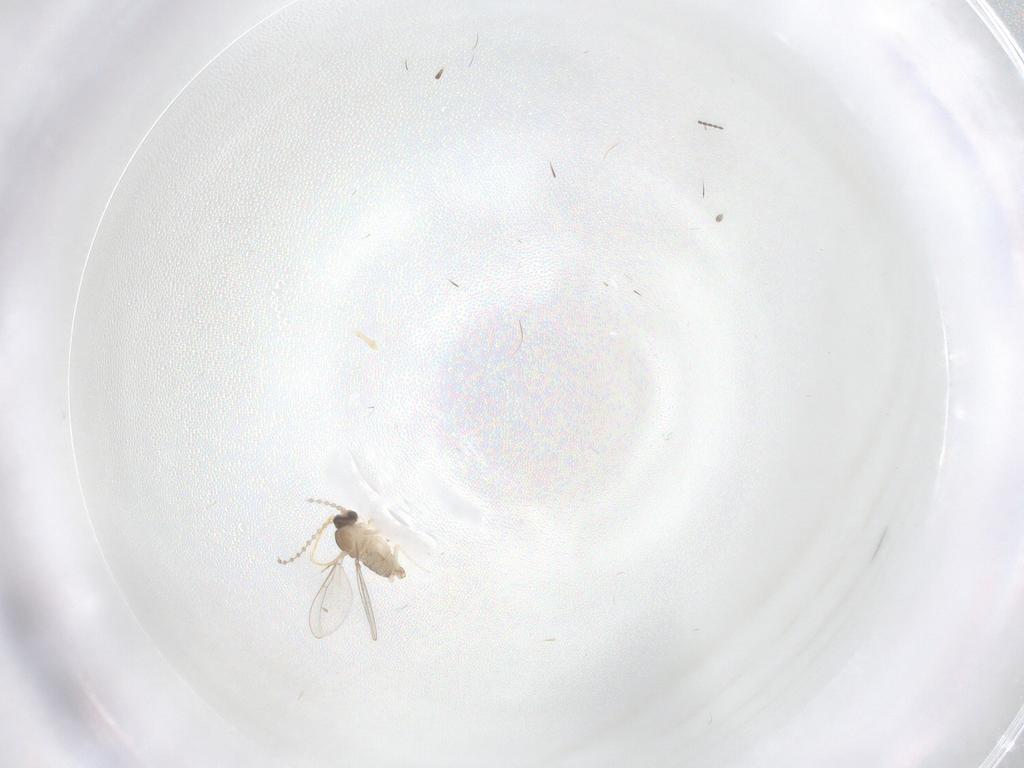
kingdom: Animalia
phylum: Arthropoda
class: Insecta
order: Diptera
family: Cecidomyiidae
